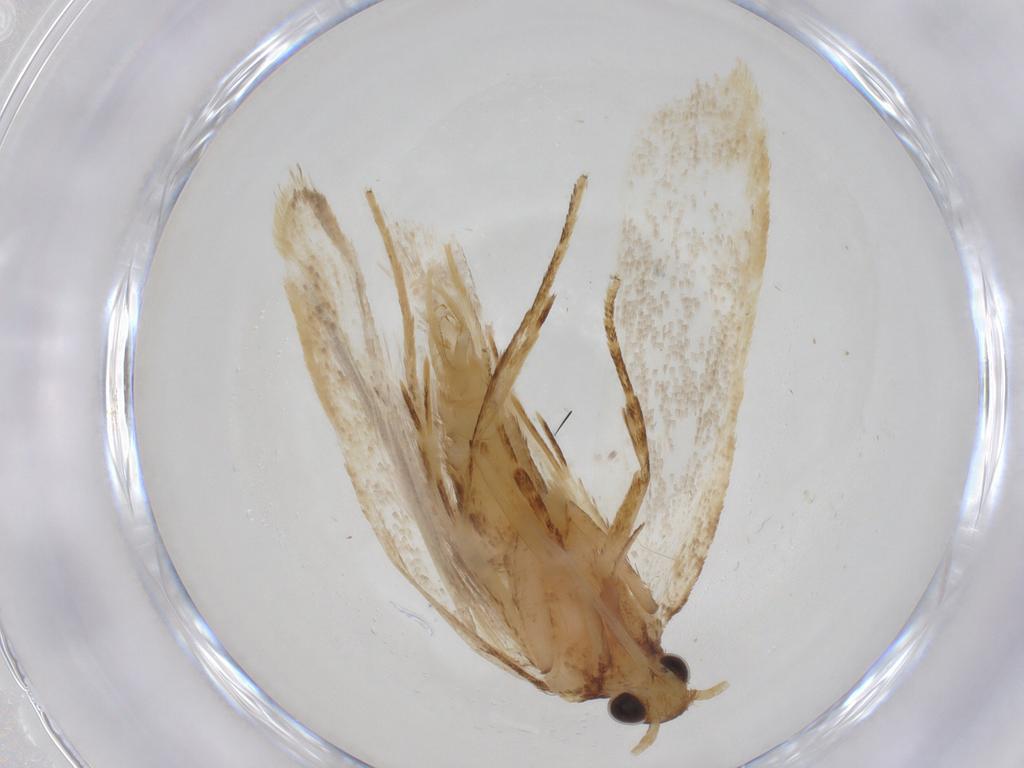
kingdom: Animalia
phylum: Arthropoda
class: Insecta
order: Lepidoptera
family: Lecithoceridae
